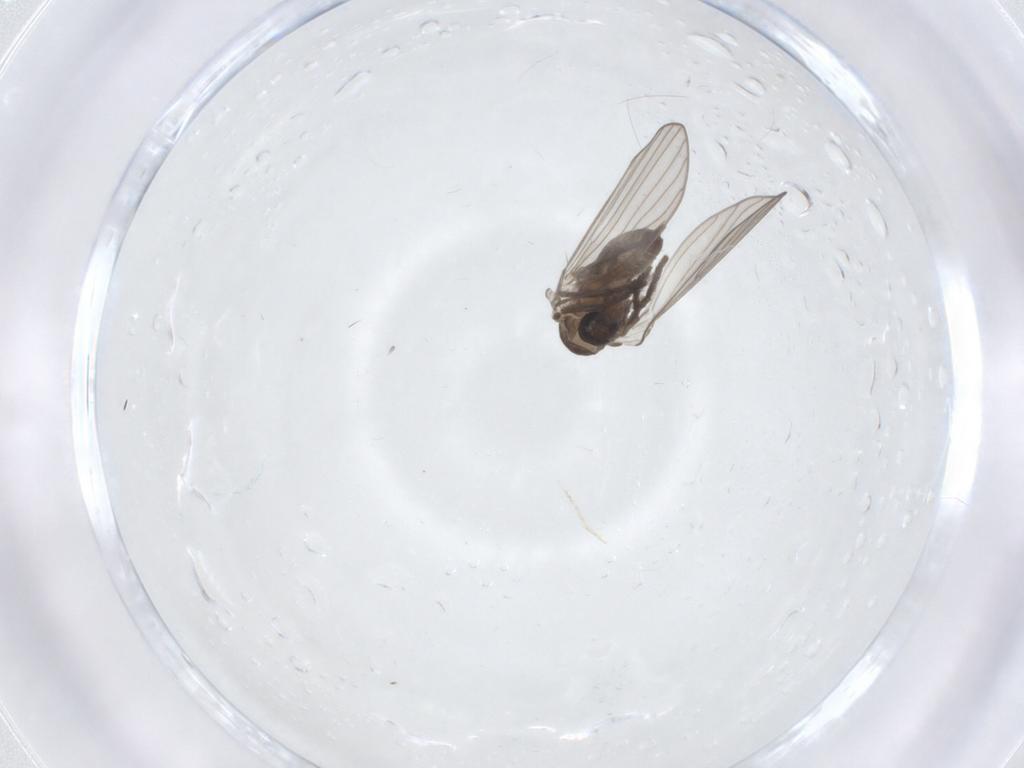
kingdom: Animalia
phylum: Arthropoda
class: Insecta
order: Diptera
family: Psychodidae
